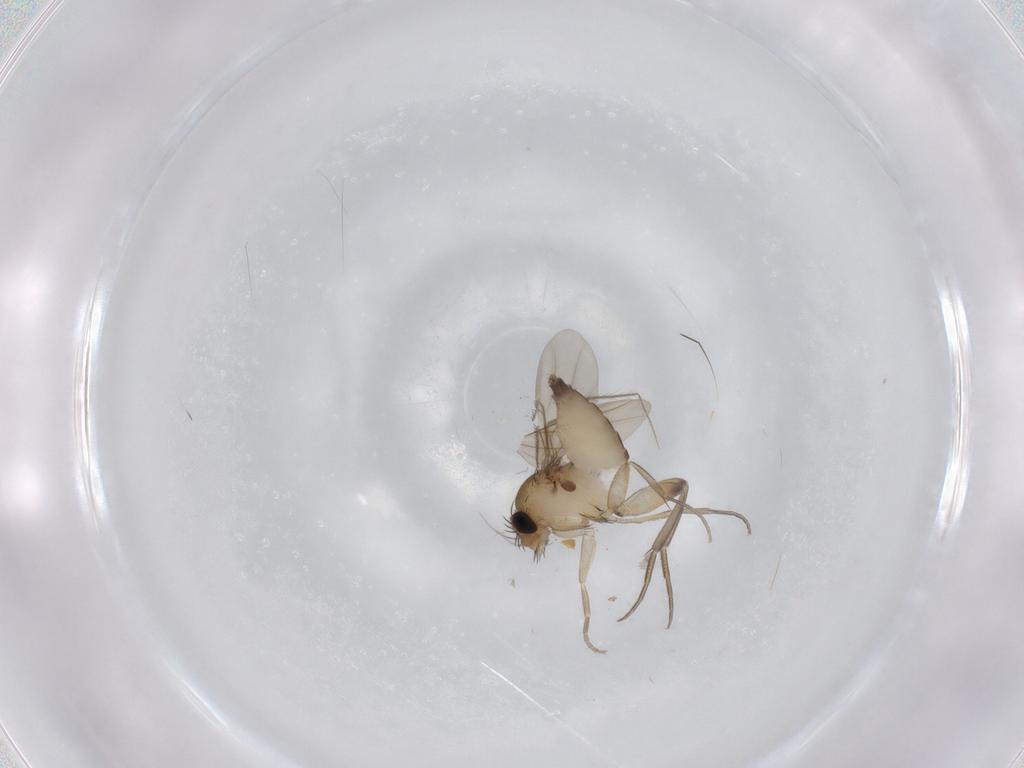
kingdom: Animalia
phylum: Arthropoda
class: Insecta
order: Diptera
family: Phoridae
